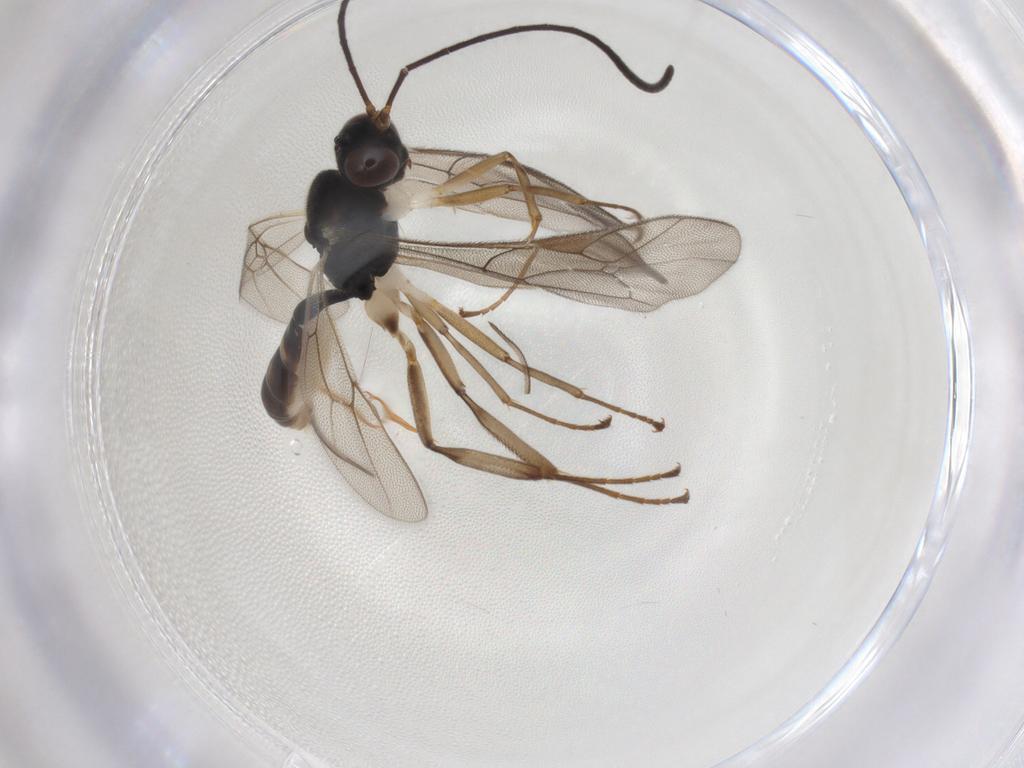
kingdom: Animalia
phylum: Arthropoda
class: Insecta
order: Hymenoptera
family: Ichneumonidae
